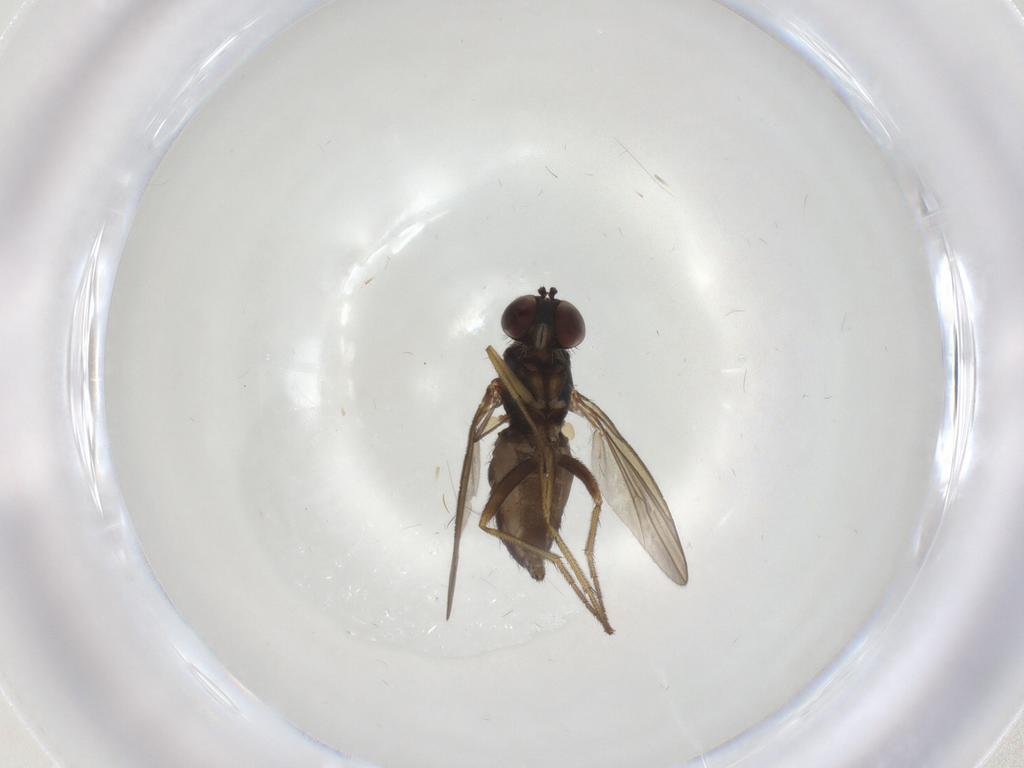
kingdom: Animalia
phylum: Arthropoda
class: Insecta
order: Diptera
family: Dolichopodidae
